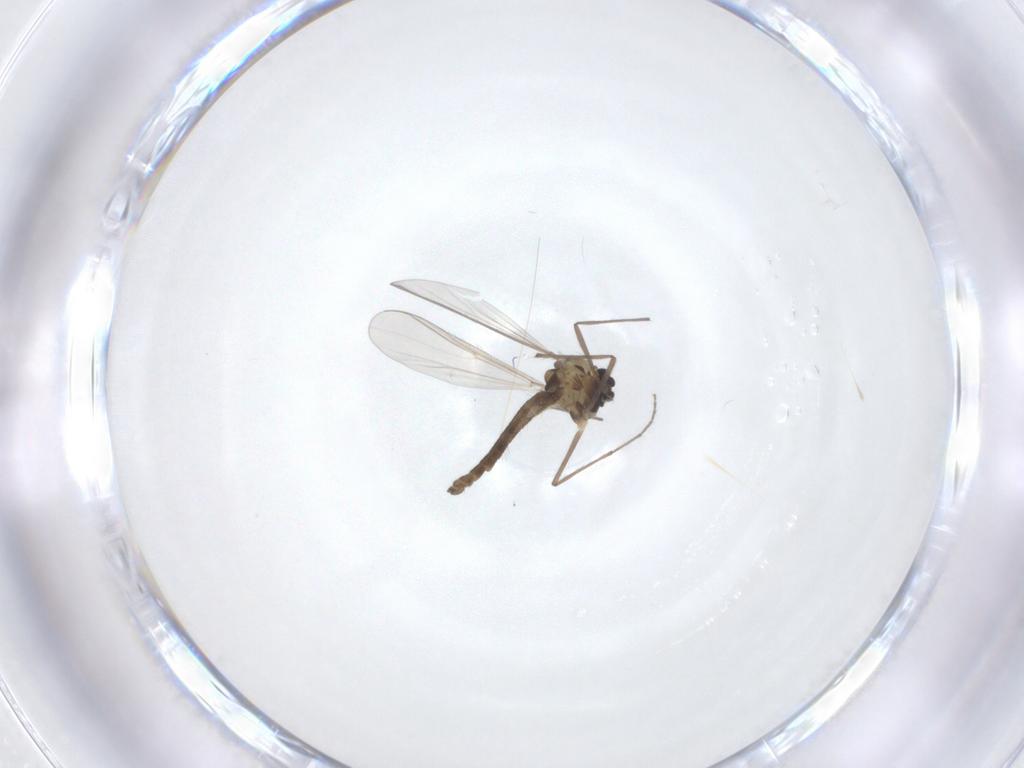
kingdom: Animalia
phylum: Arthropoda
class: Insecta
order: Diptera
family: Chironomidae
